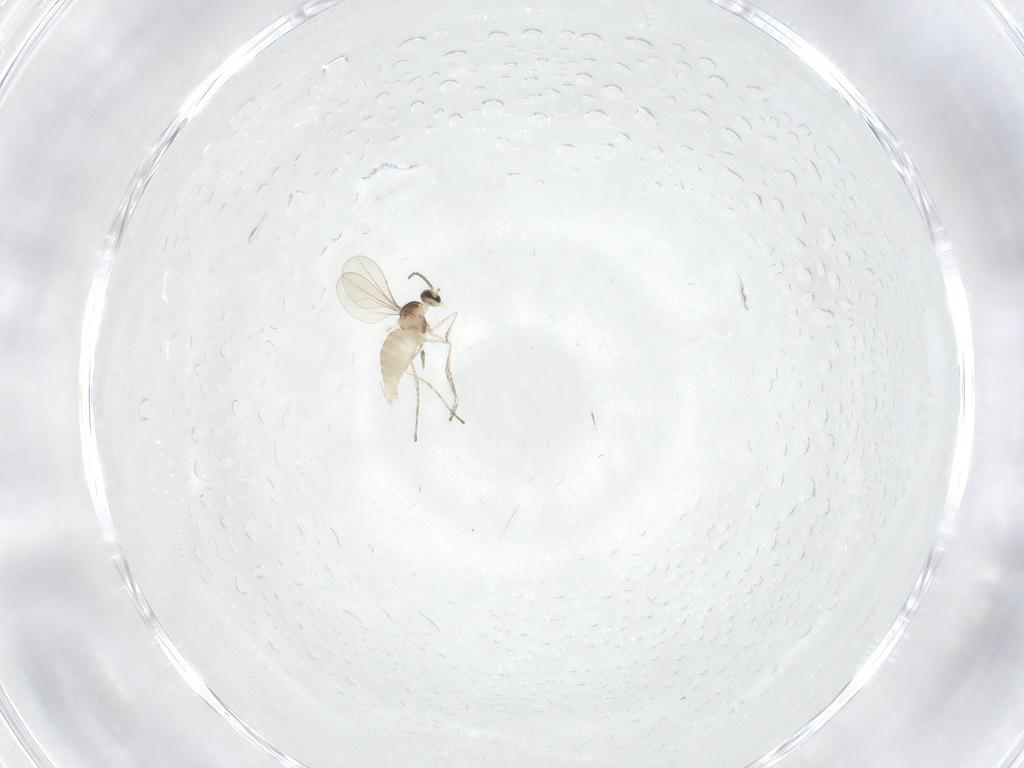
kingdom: Animalia
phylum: Arthropoda
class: Insecta
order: Diptera
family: Cecidomyiidae
